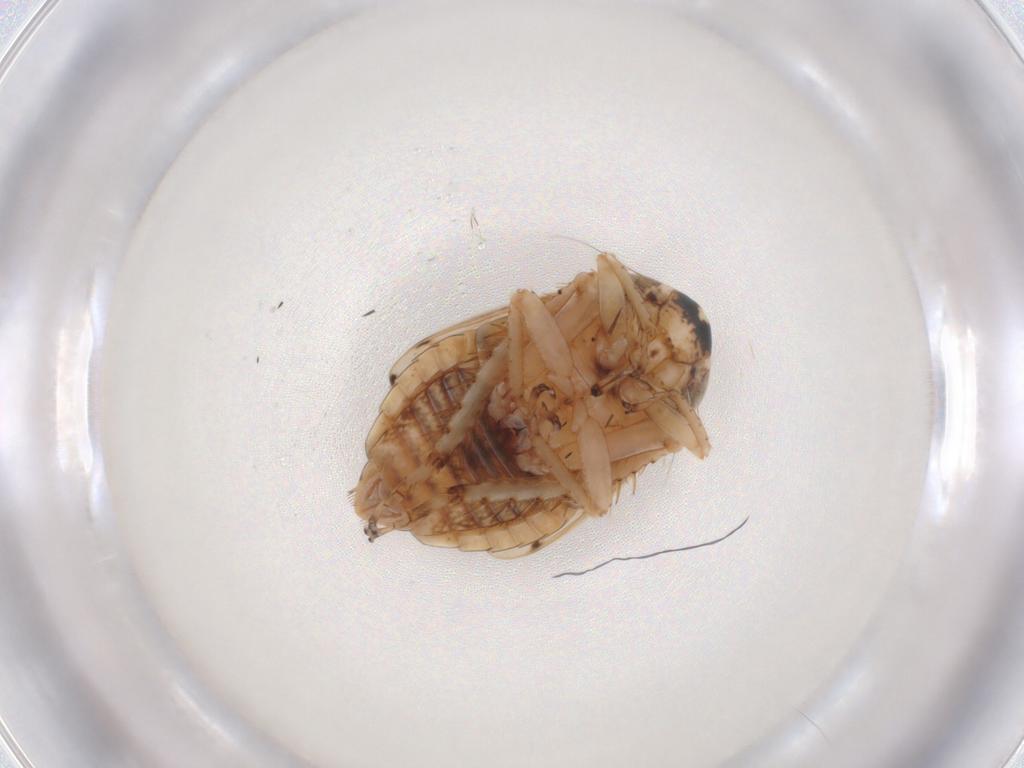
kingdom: Animalia
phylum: Arthropoda
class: Insecta
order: Hemiptera
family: Cicadellidae
